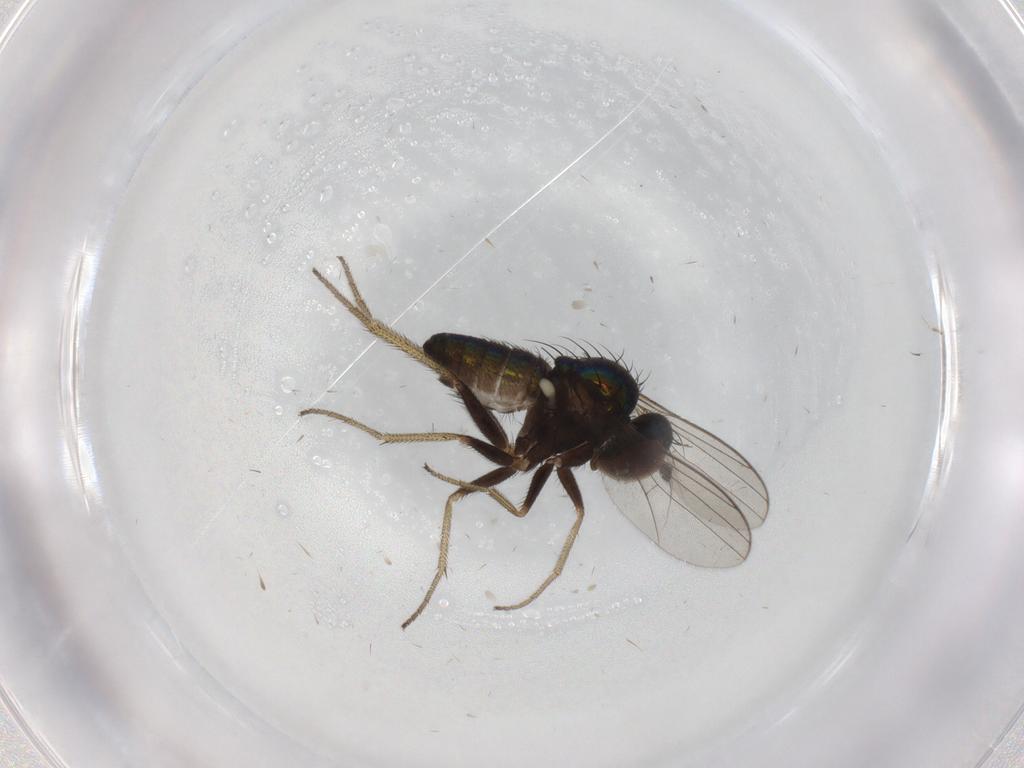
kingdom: Animalia
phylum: Arthropoda
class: Insecta
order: Diptera
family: Dolichopodidae
